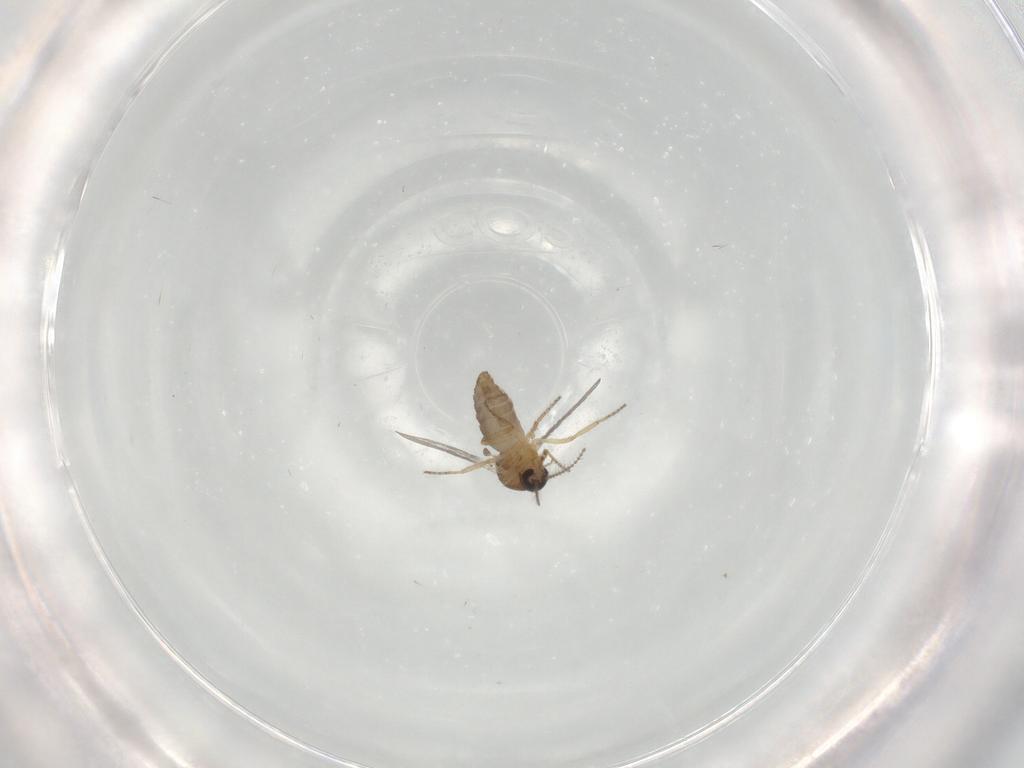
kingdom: Animalia
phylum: Arthropoda
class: Insecta
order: Diptera
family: Ceratopogonidae
